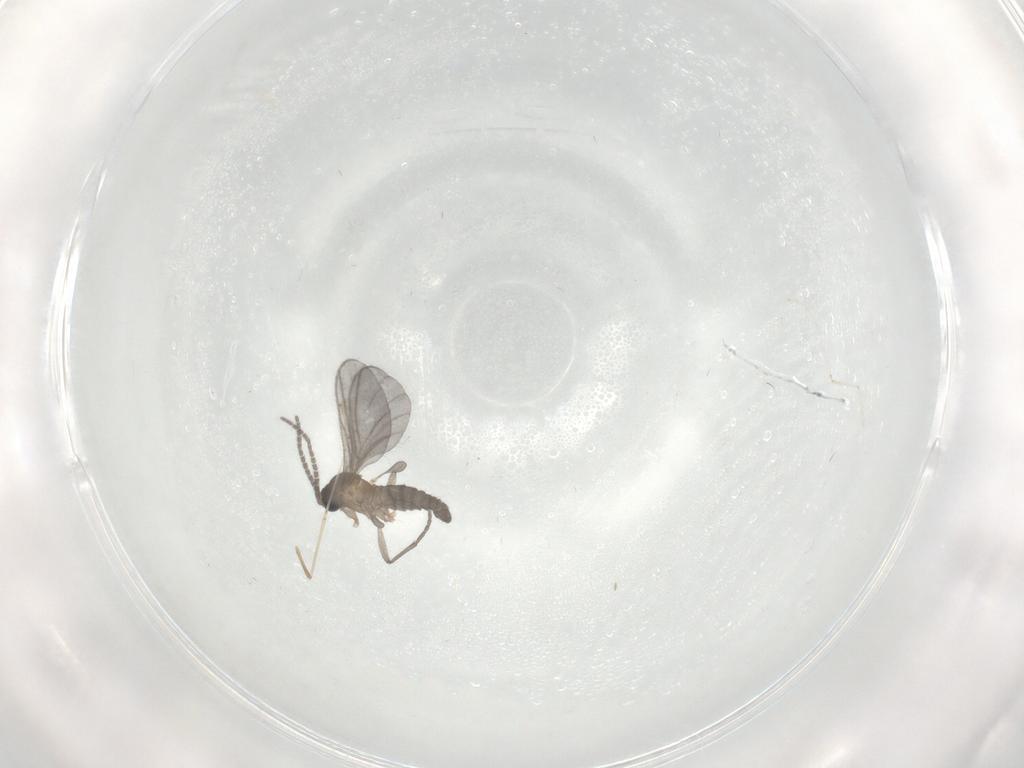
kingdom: Animalia
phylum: Arthropoda
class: Insecta
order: Diptera
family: Sciaridae
